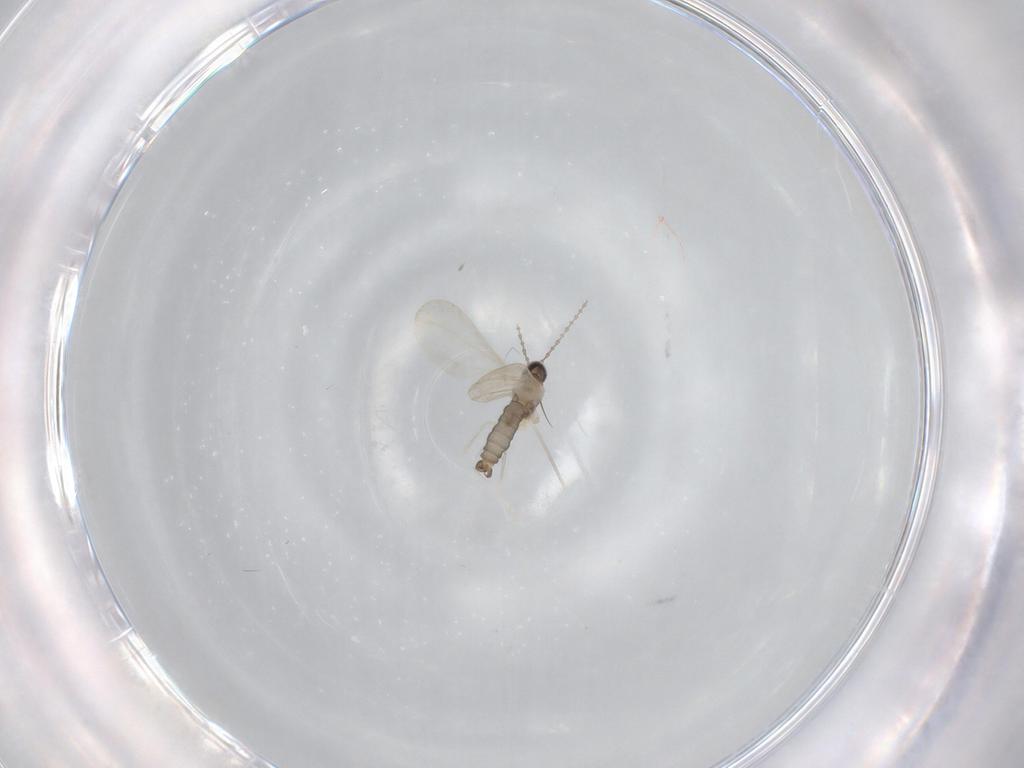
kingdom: Animalia
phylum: Arthropoda
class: Insecta
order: Diptera
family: Cecidomyiidae
